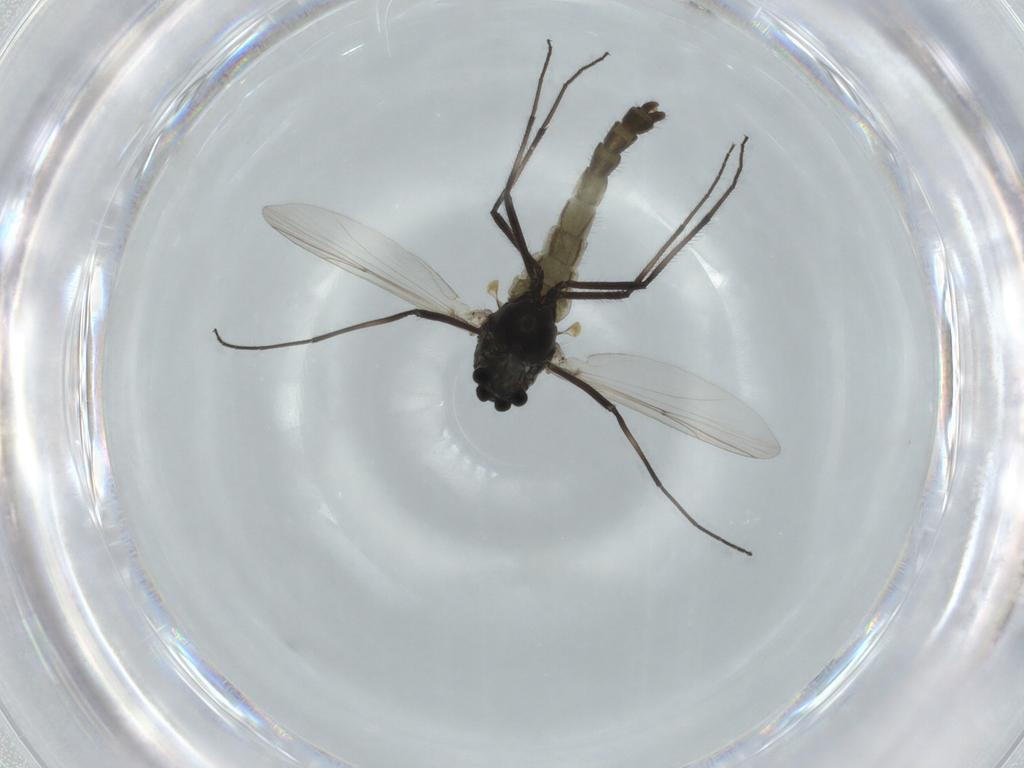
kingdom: Animalia
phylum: Arthropoda
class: Insecta
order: Diptera
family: Chironomidae
